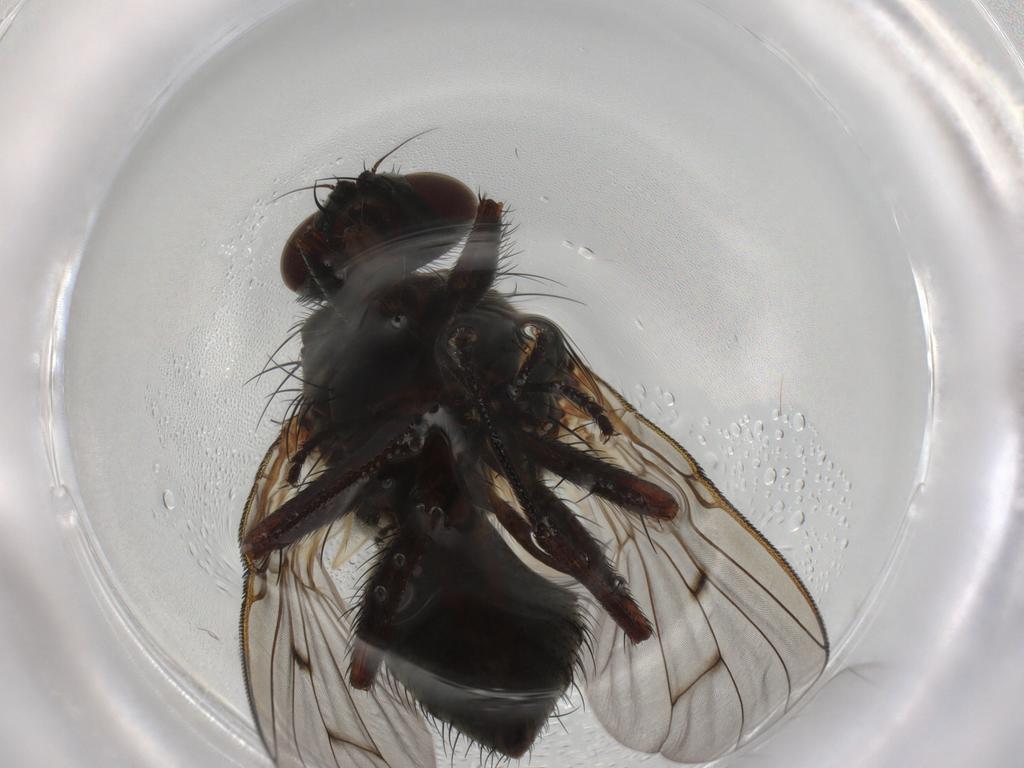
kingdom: Animalia
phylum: Arthropoda
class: Insecta
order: Diptera
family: Muscidae
